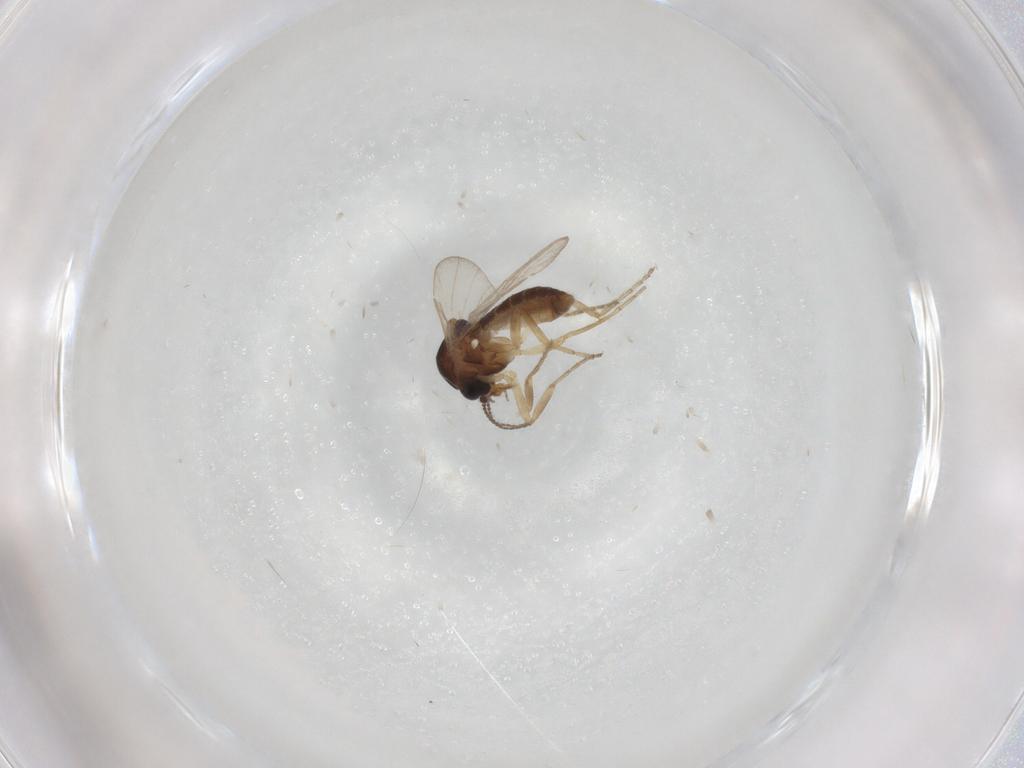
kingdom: Animalia
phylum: Arthropoda
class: Insecta
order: Diptera
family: Ceratopogonidae
